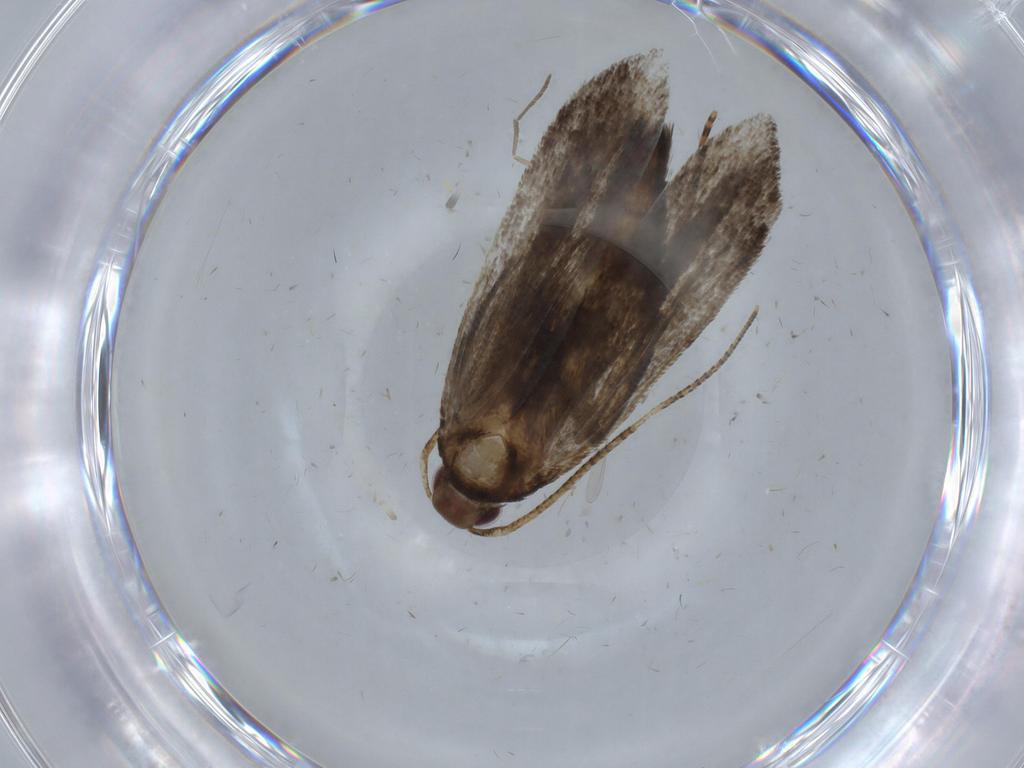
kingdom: Animalia
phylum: Arthropoda
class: Insecta
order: Lepidoptera
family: Gelechiidae
